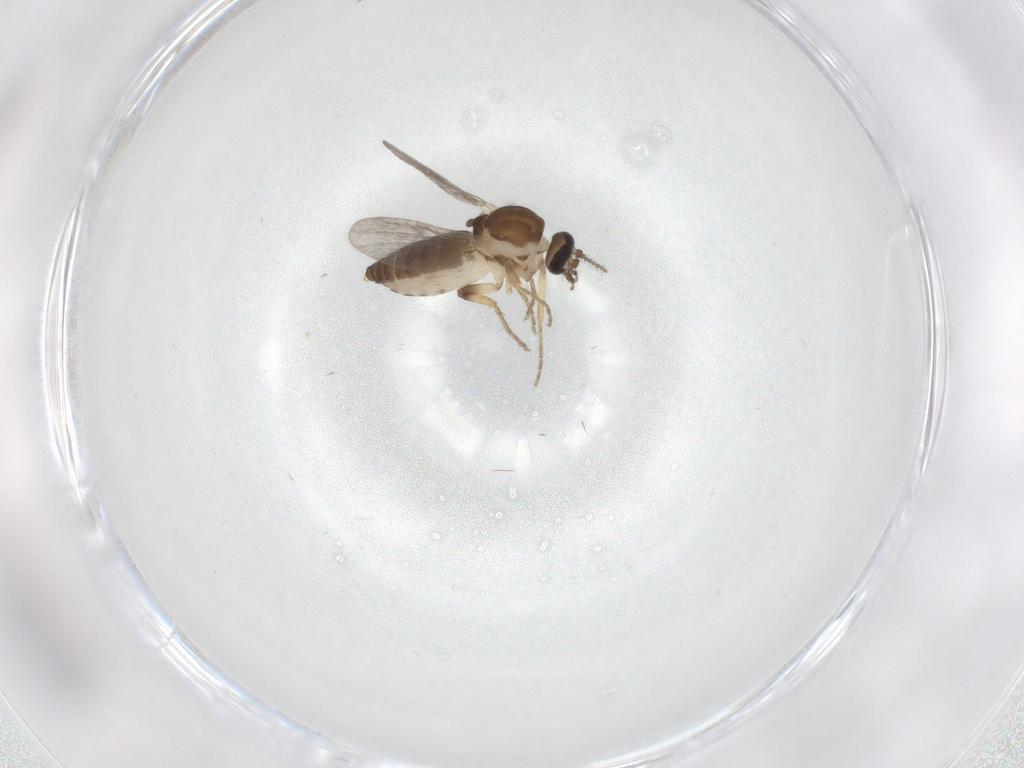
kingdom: Animalia
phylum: Arthropoda
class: Insecta
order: Diptera
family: Ceratopogonidae
